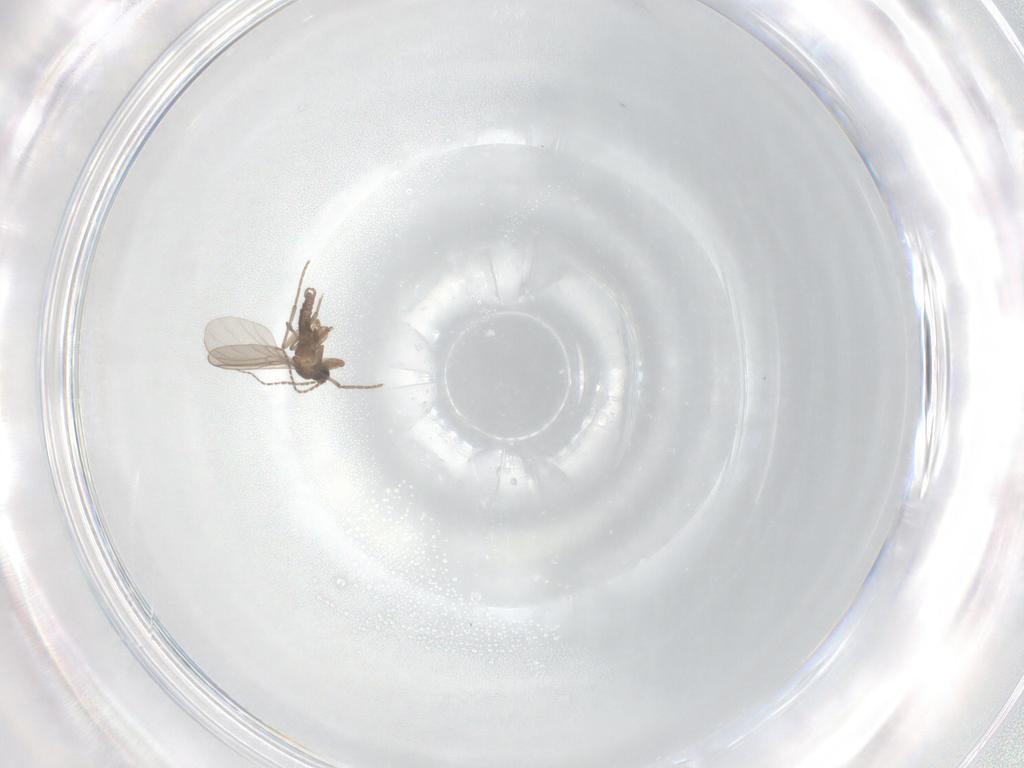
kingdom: Animalia
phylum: Arthropoda
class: Insecta
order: Diptera
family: Sciaridae
